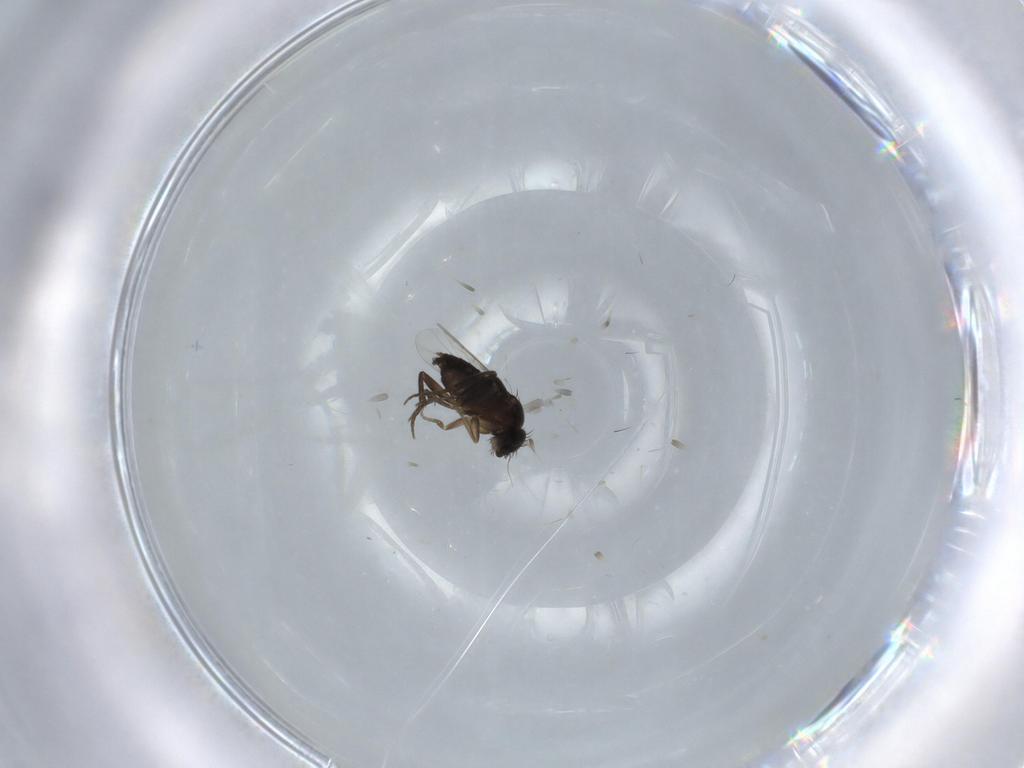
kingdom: Animalia
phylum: Arthropoda
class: Insecta
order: Diptera
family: Phoridae
